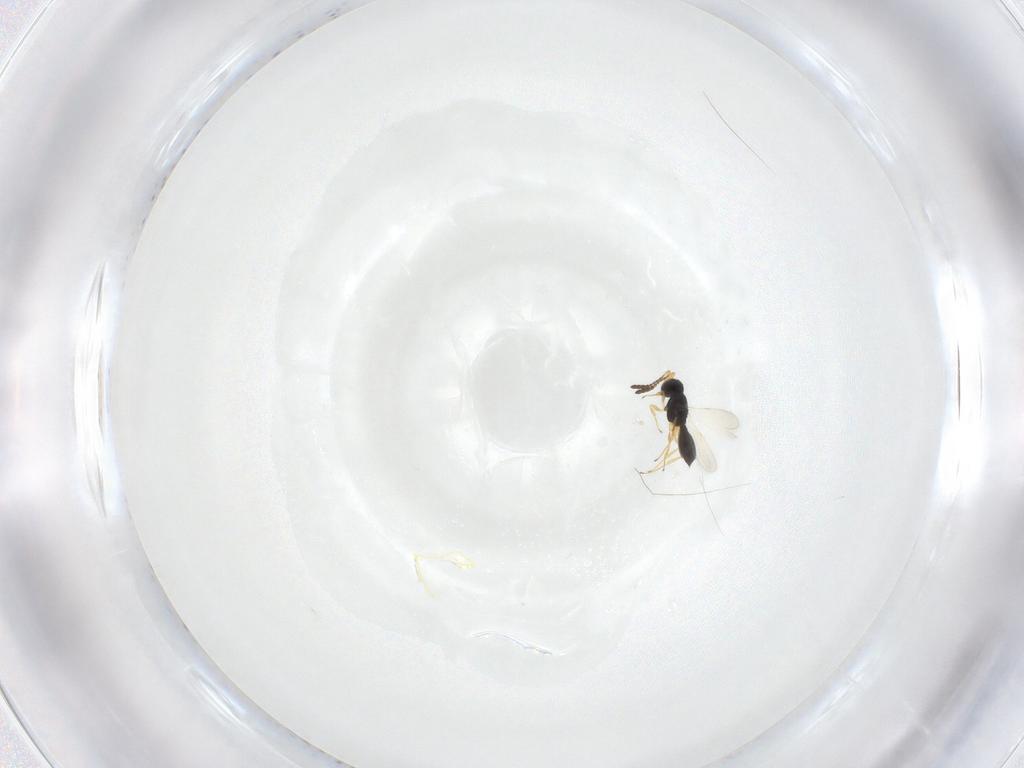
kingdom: Animalia
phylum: Arthropoda
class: Insecta
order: Hymenoptera
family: Scelionidae
